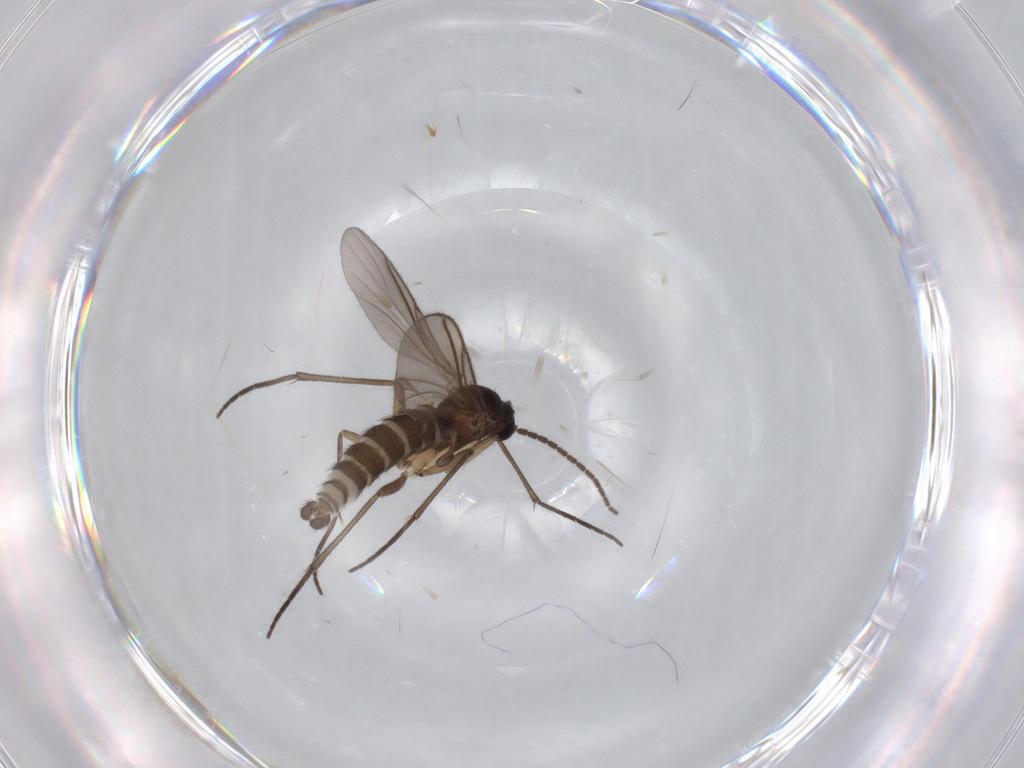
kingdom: Animalia
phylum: Arthropoda
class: Insecta
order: Diptera
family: Sciaridae
